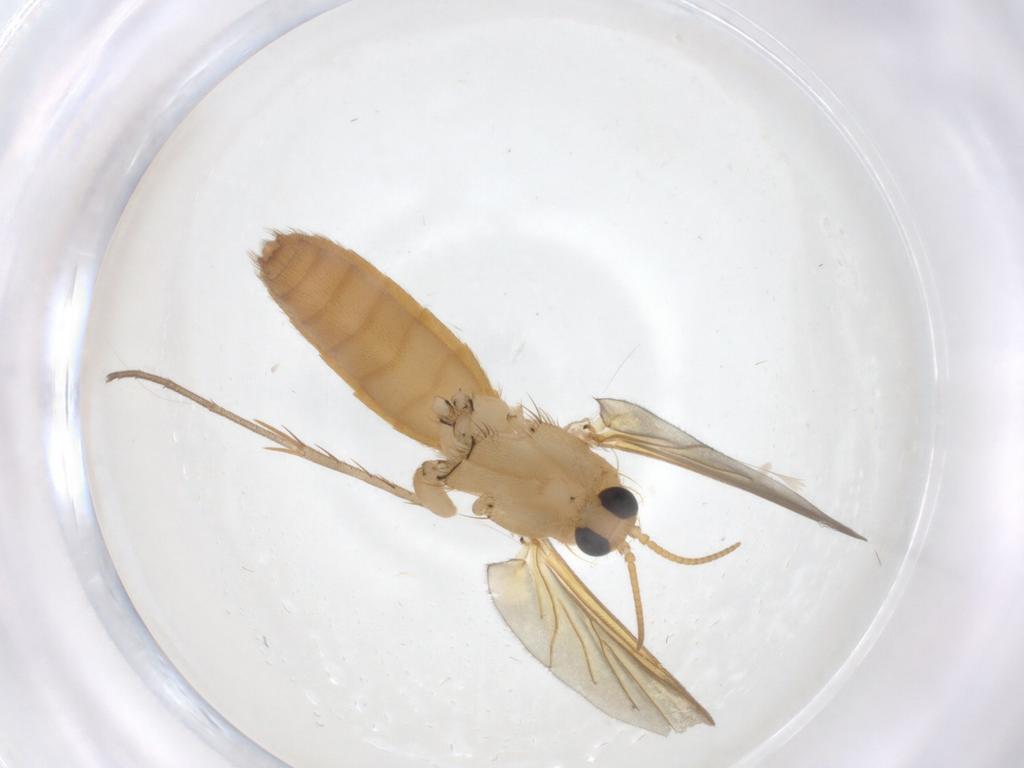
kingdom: Animalia
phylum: Arthropoda
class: Insecta
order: Diptera
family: Mycetophilidae
